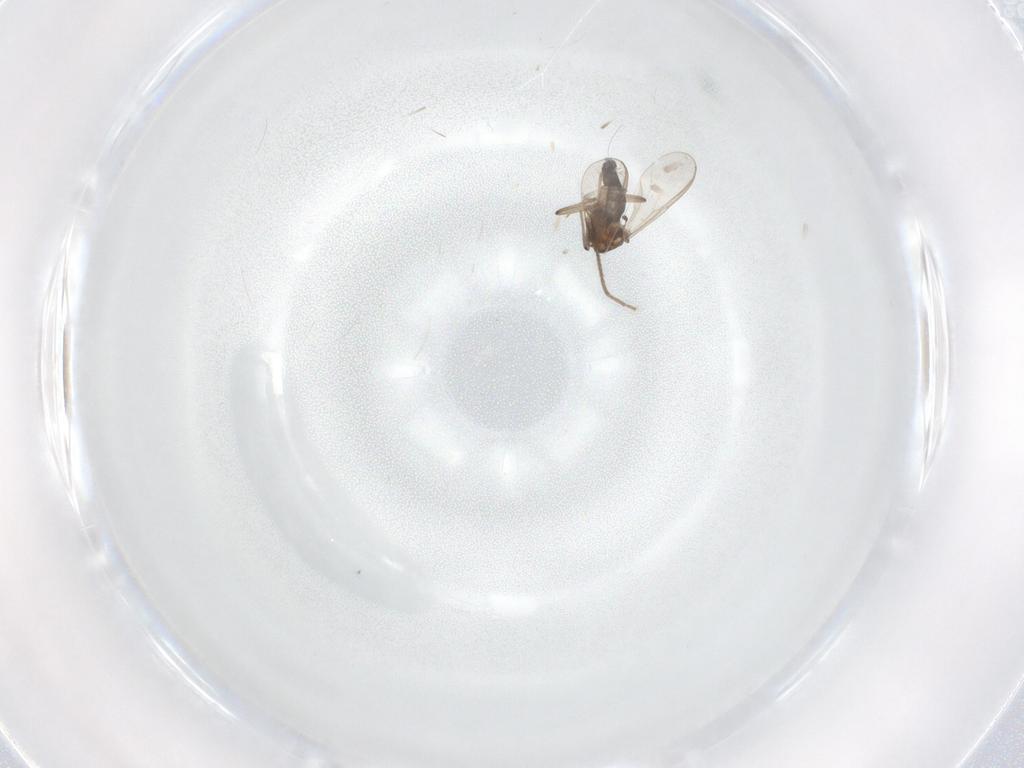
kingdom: Animalia
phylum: Arthropoda
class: Insecta
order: Diptera
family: Chironomidae
